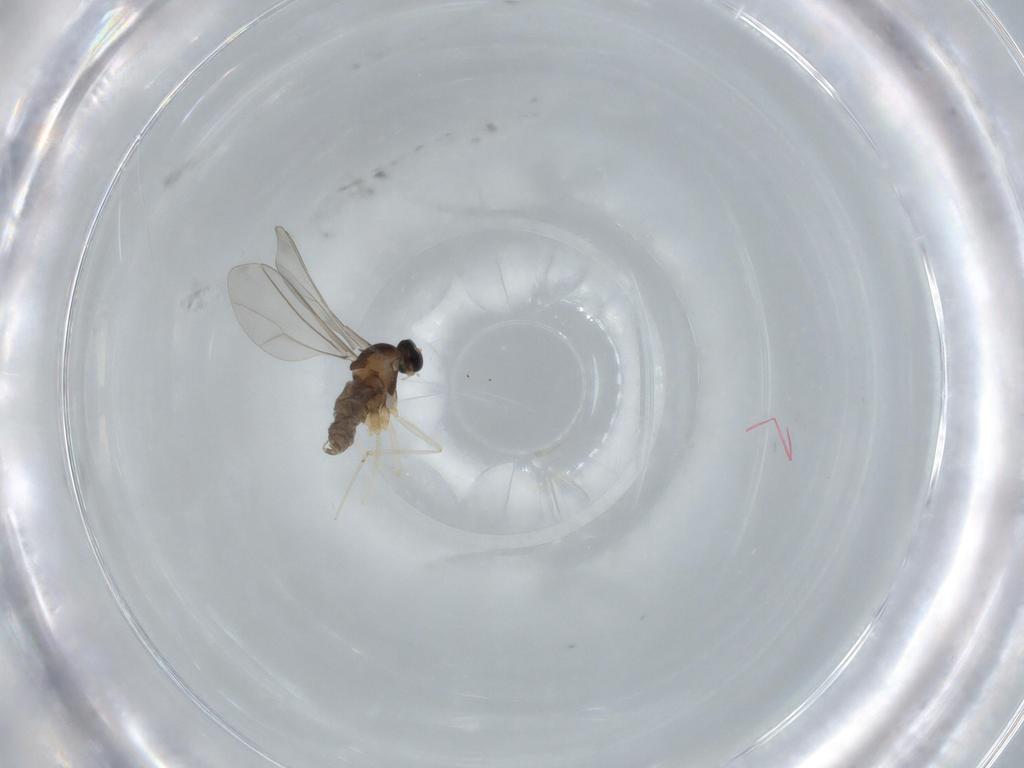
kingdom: Animalia
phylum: Arthropoda
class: Insecta
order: Diptera
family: Cecidomyiidae
